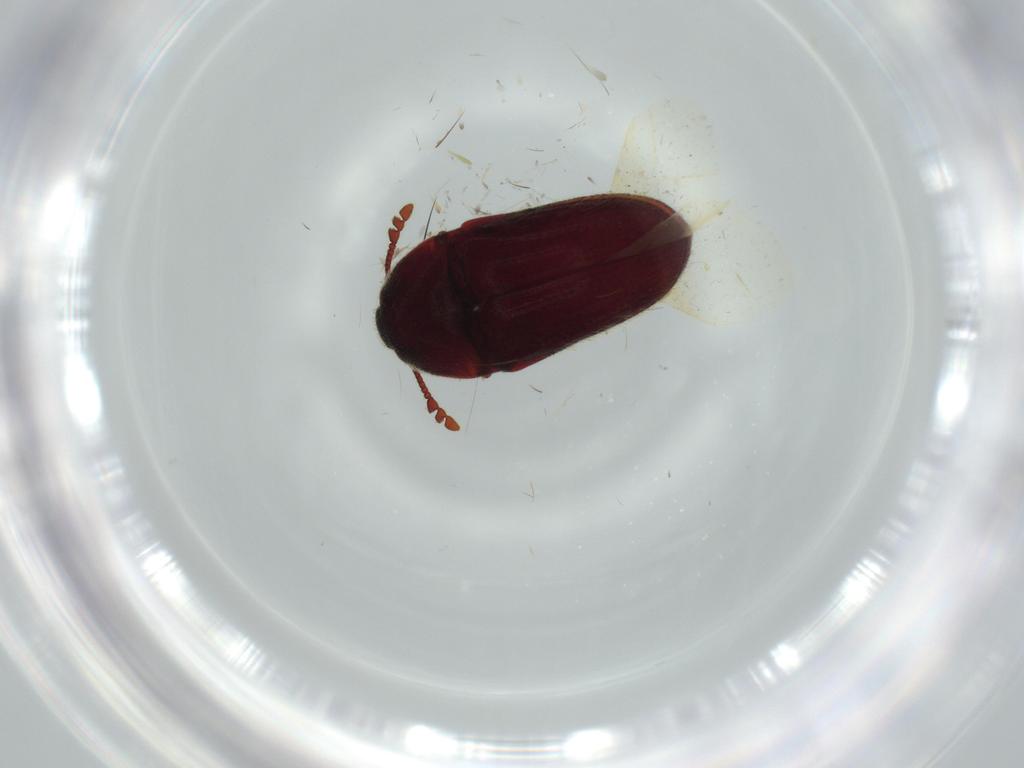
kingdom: Animalia
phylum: Arthropoda
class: Insecta
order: Coleoptera
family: Throscidae
